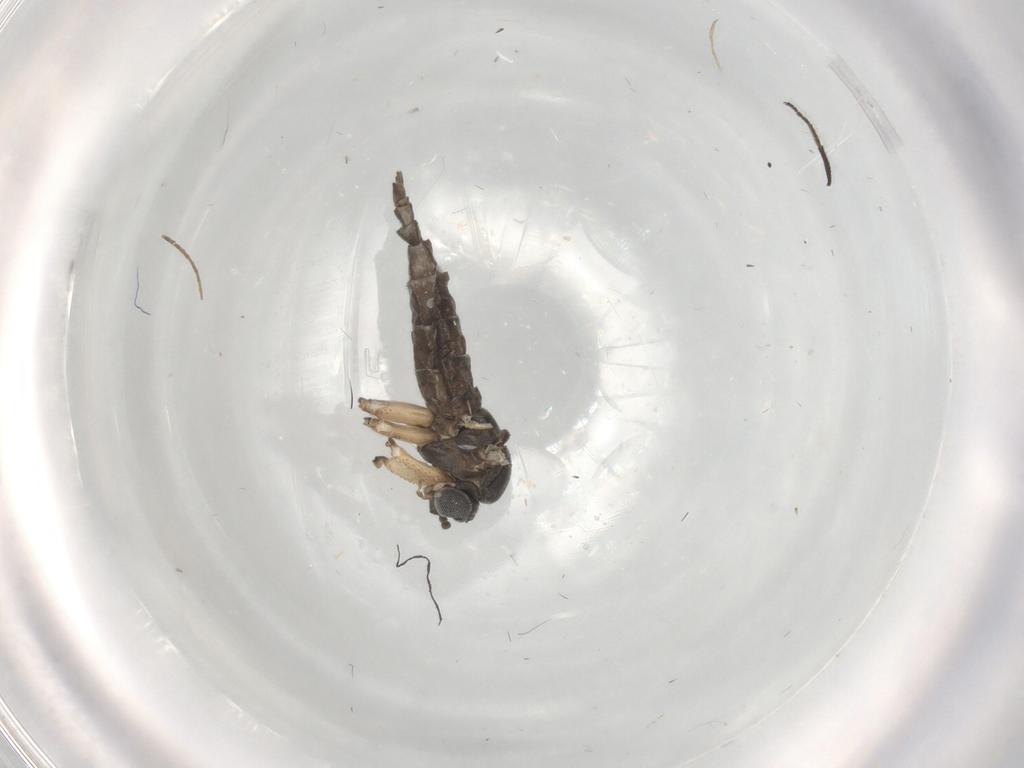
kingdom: Animalia
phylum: Arthropoda
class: Insecta
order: Diptera
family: Sciaridae
